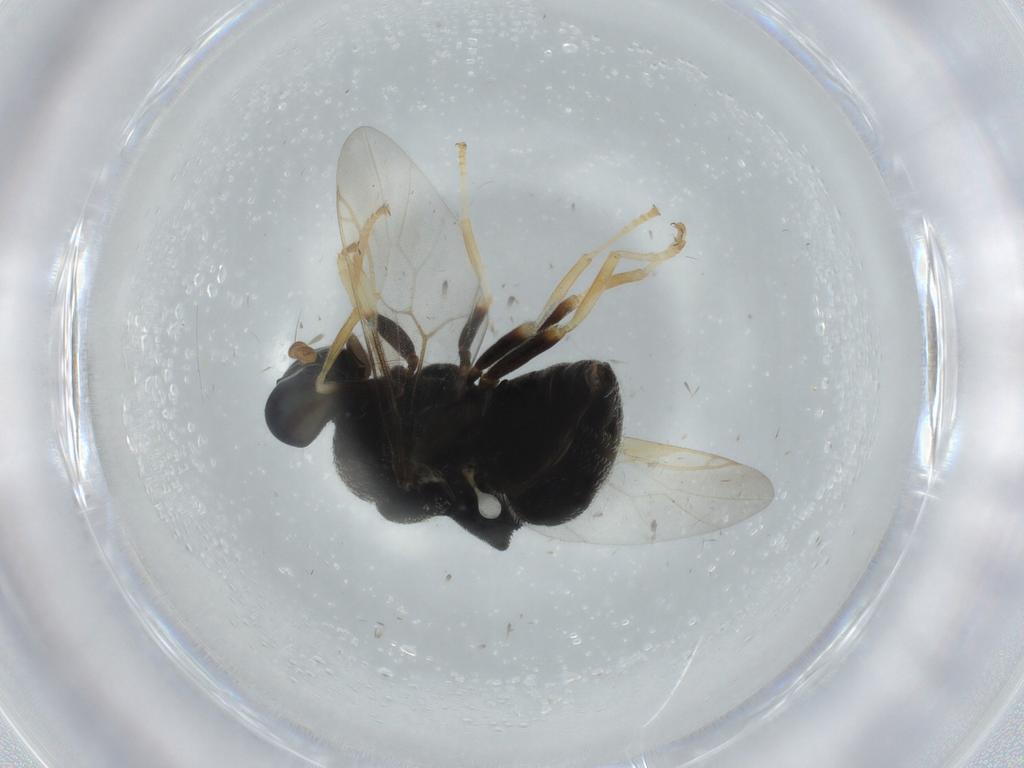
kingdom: Animalia
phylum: Arthropoda
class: Insecta
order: Diptera
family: Stratiomyidae
